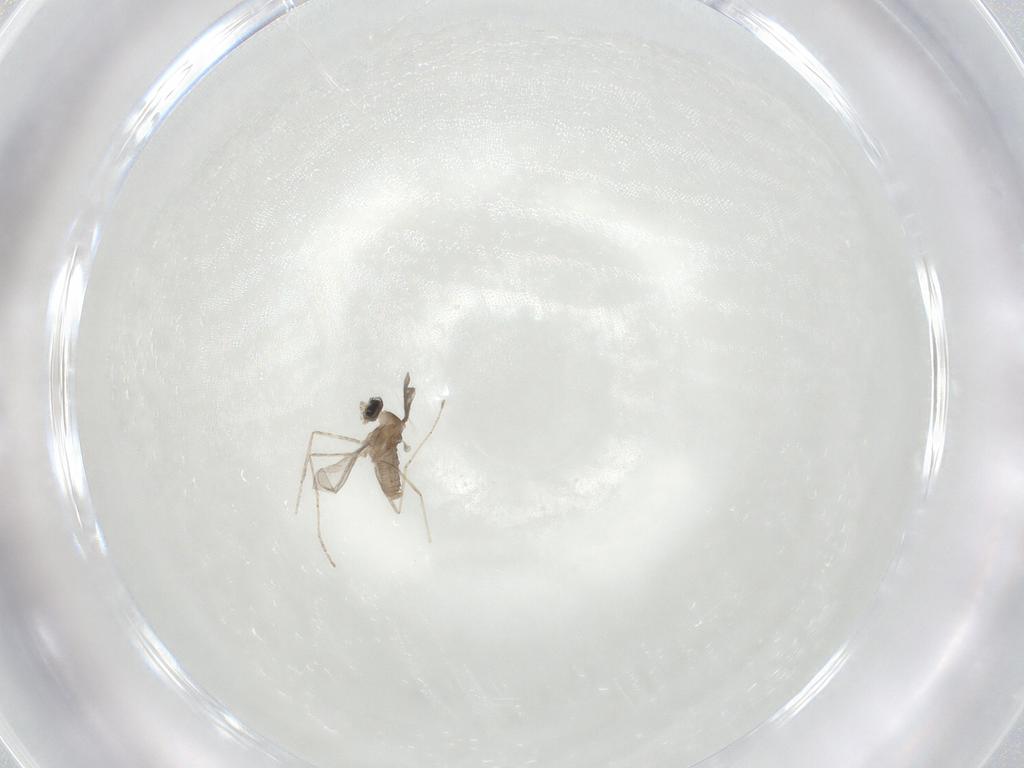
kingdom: Animalia
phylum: Arthropoda
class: Insecta
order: Diptera
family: Cecidomyiidae
